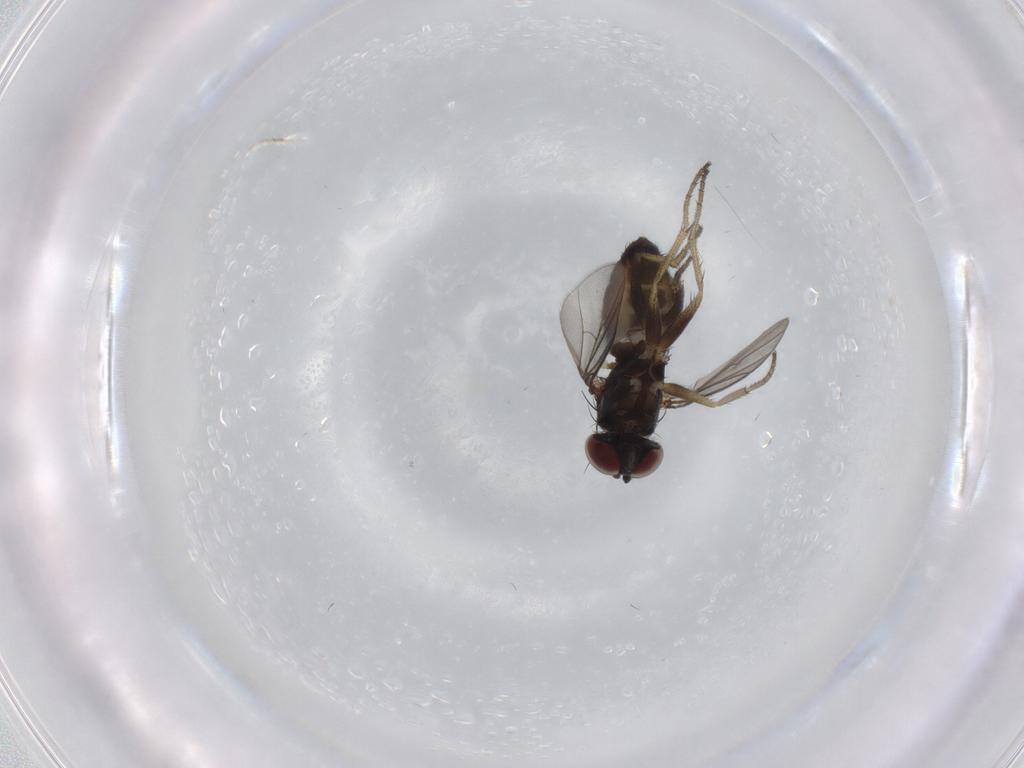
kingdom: Animalia
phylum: Arthropoda
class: Insecta
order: Diptera
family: Dolichopodidae
